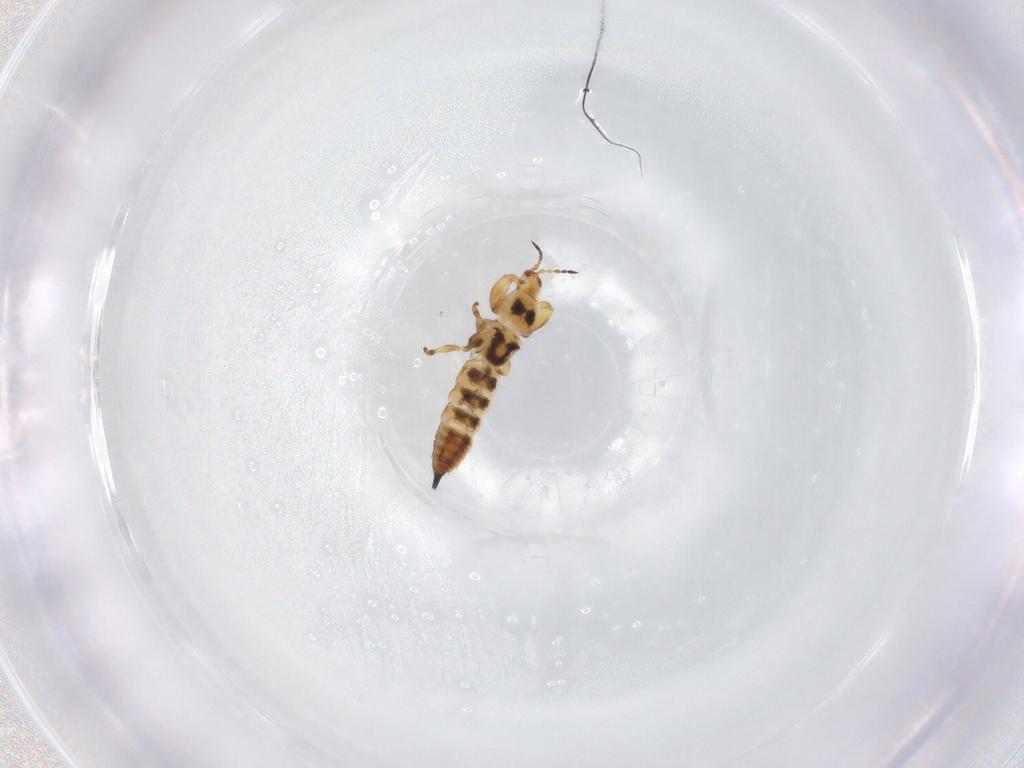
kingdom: Animalia
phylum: Arthropoda
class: Insecta
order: Thysanoptera
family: Phlaeothripidae
